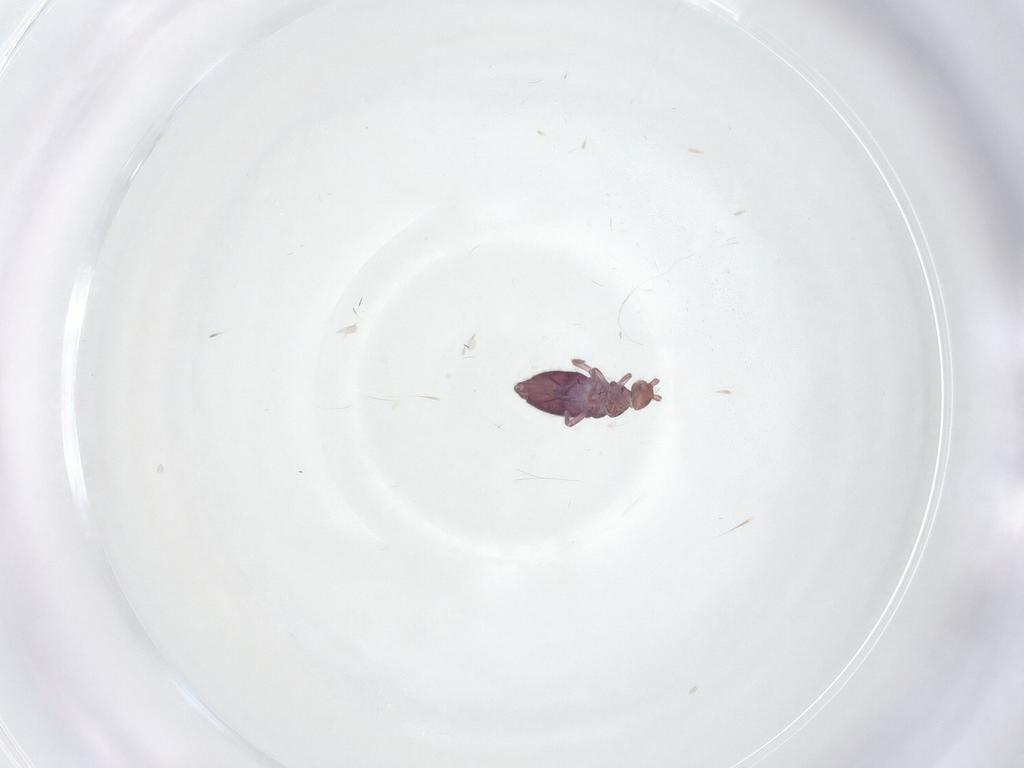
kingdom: Animalia
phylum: Arthropoda
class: Collembola
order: Entomobryomorpha
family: Entomobryidae
